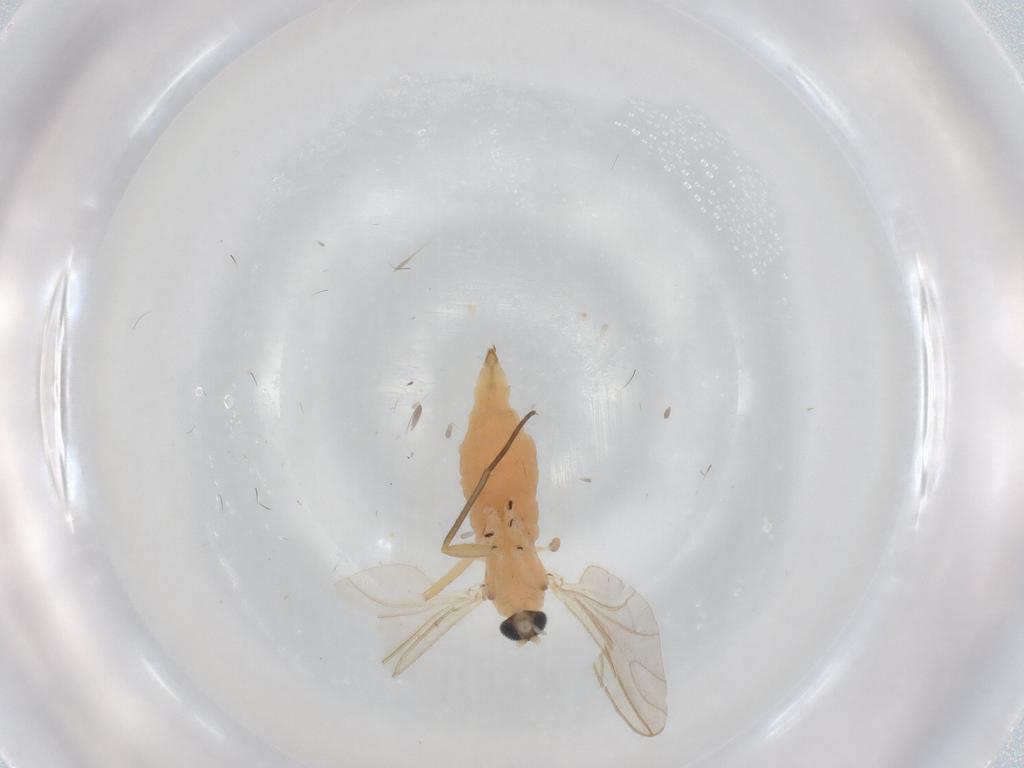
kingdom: Animalia
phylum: Arthropoda
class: Insecta
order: Diptera
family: Sciaridae
